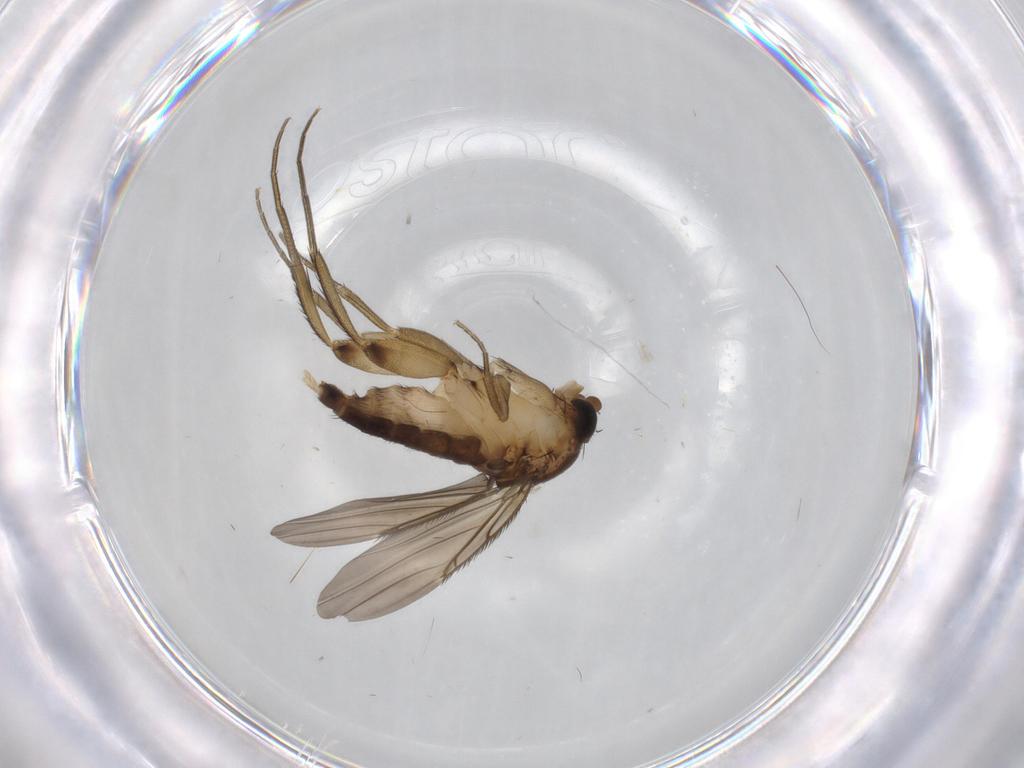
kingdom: Animalia
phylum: Arthropoda
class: Insecta
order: Diptera
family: Phoridae
